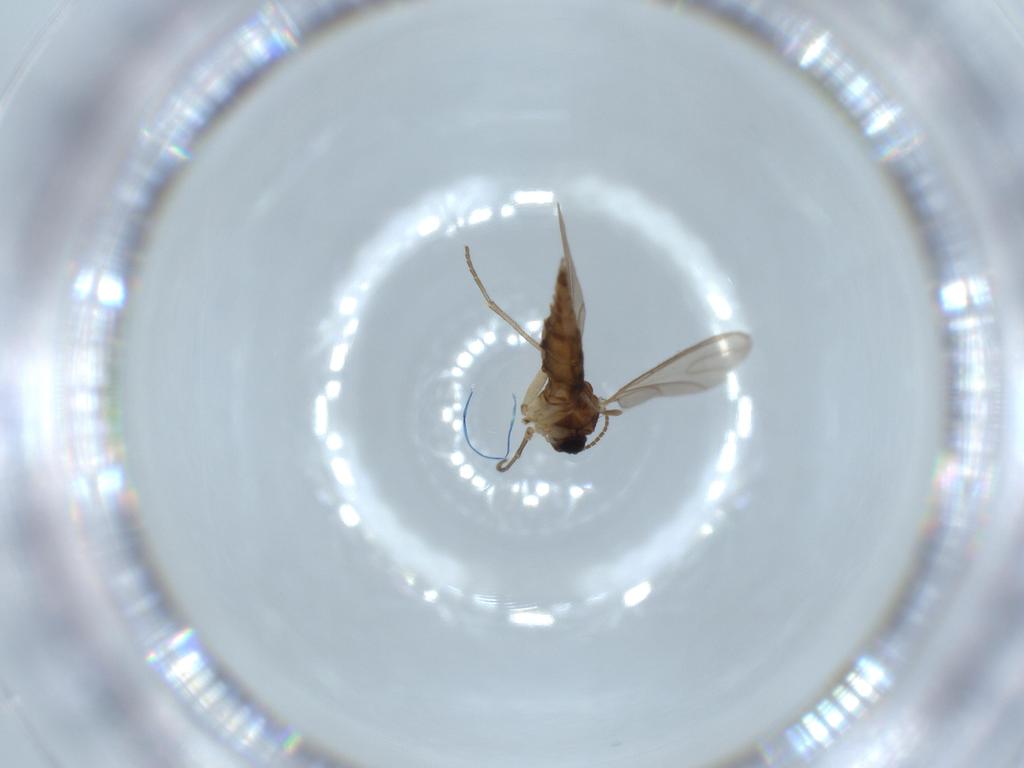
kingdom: Animalia
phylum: Arthropoda
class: Insecta
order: Diptera
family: Sciaridae
